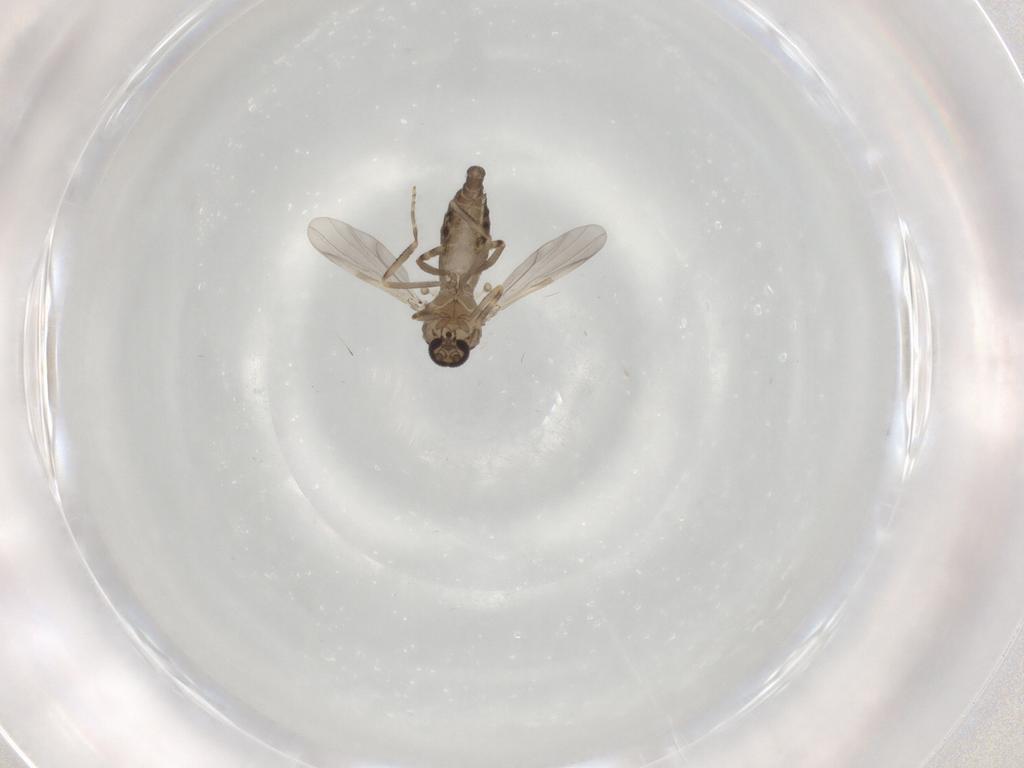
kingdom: Animalia
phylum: Arthropoda
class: Insecta
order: Diptera
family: Ceratopogonidae
